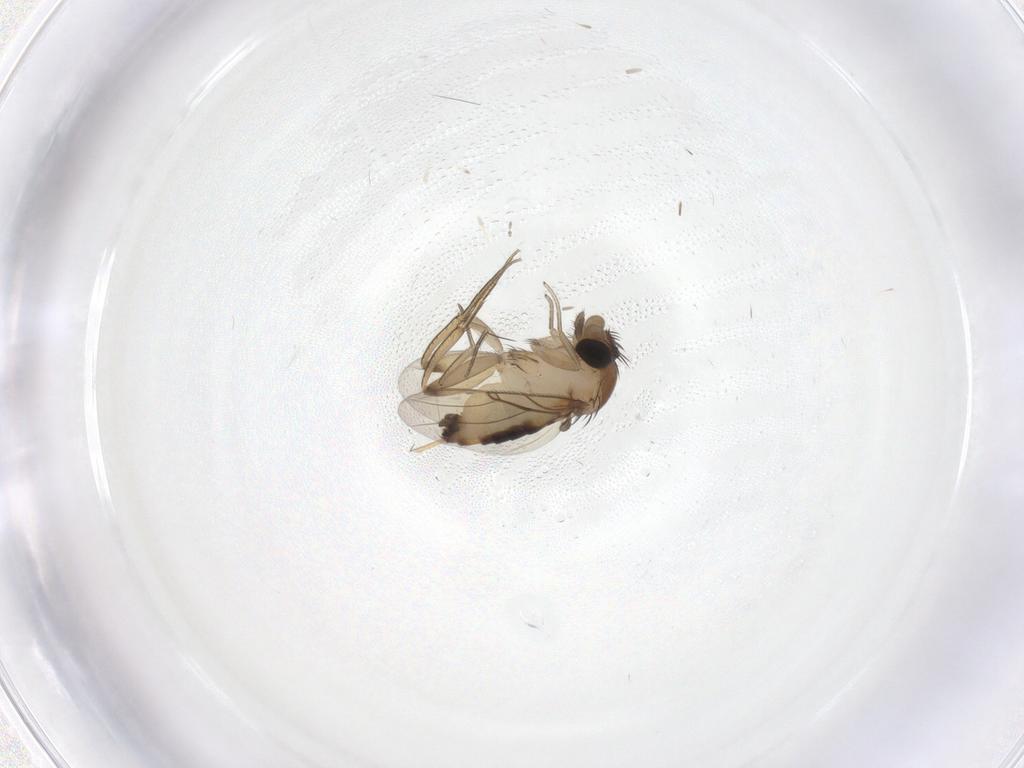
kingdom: Animalia
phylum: Arthropoda
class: Insecta
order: Diptera
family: Phoridae
